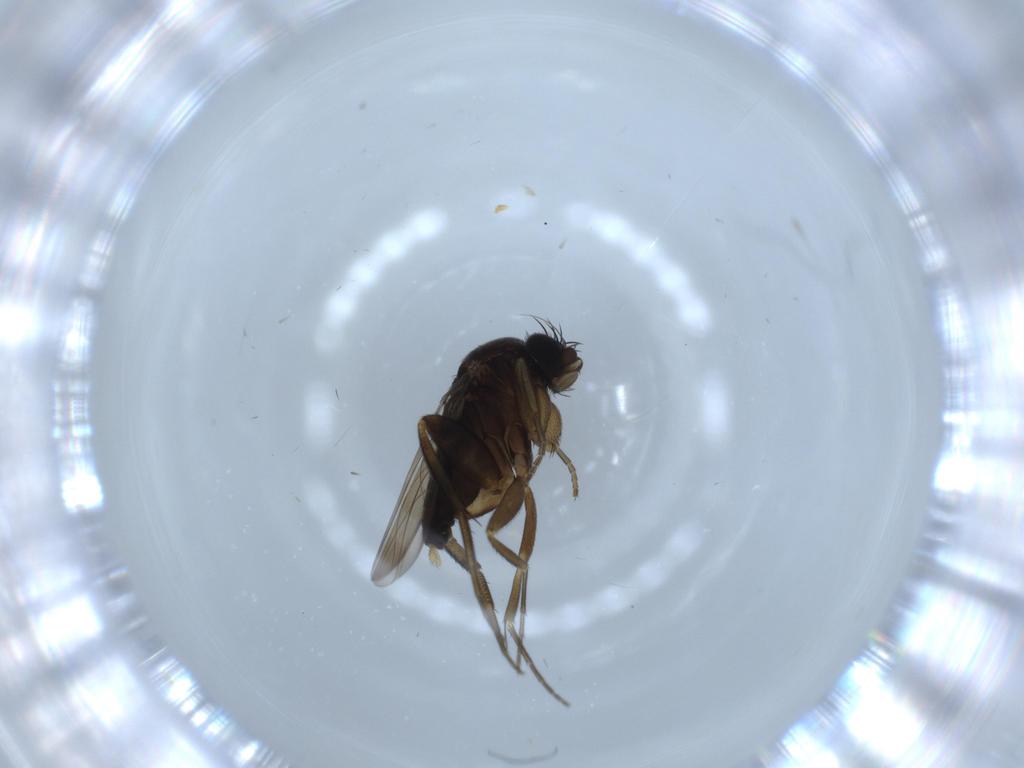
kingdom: Animalia
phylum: Arthropoda
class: Insecta
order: Diptera
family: Phoridae
